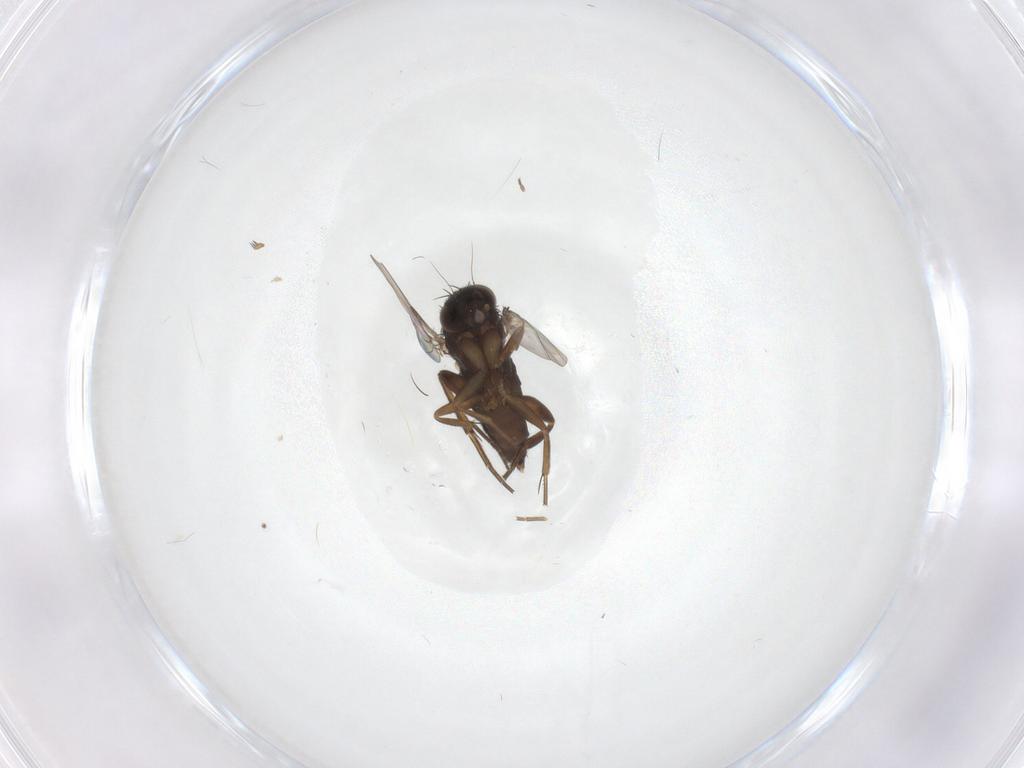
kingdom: Animalia
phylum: Arthropoda
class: Insecta
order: Diptera
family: Phoridae
